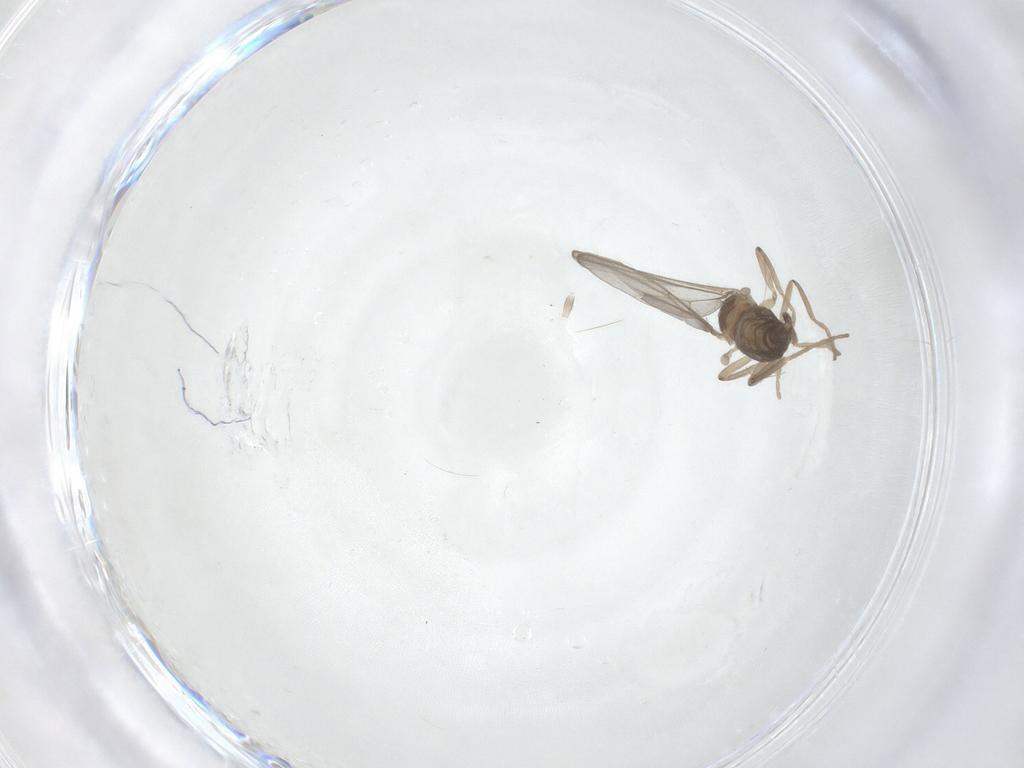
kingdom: Animalia
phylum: Arthropoda
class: Insecta
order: Diptera
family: Cecidomyiidae
